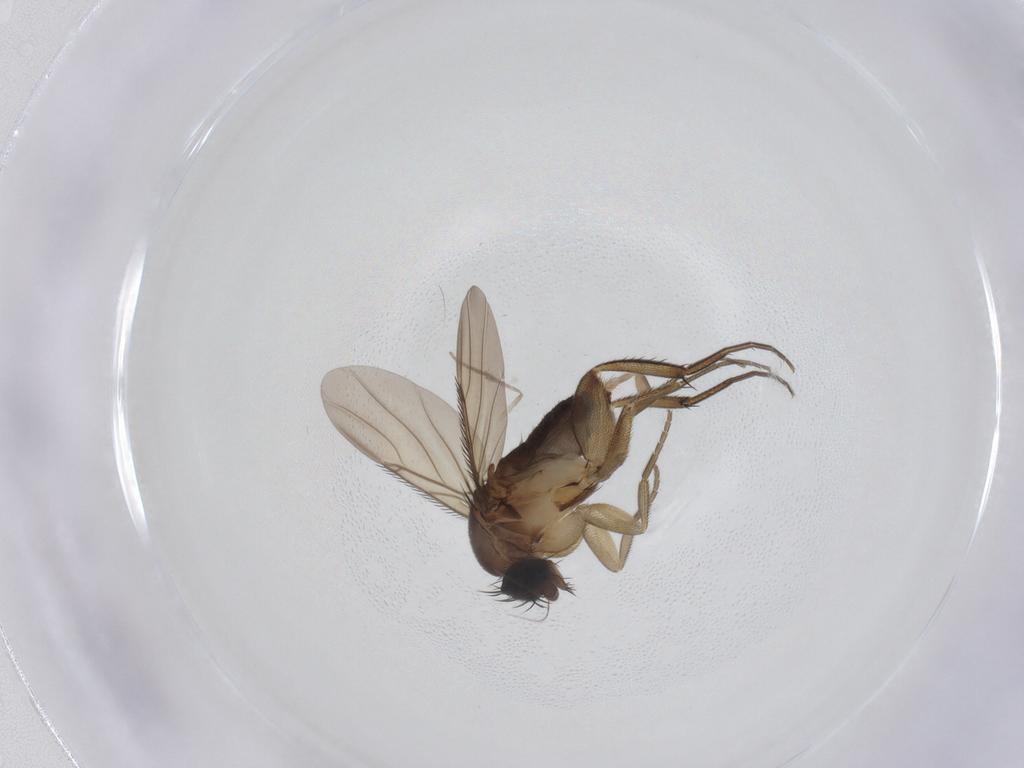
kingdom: Animalia
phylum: Arthropoda
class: Insecta
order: Diptera
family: Phoridae
